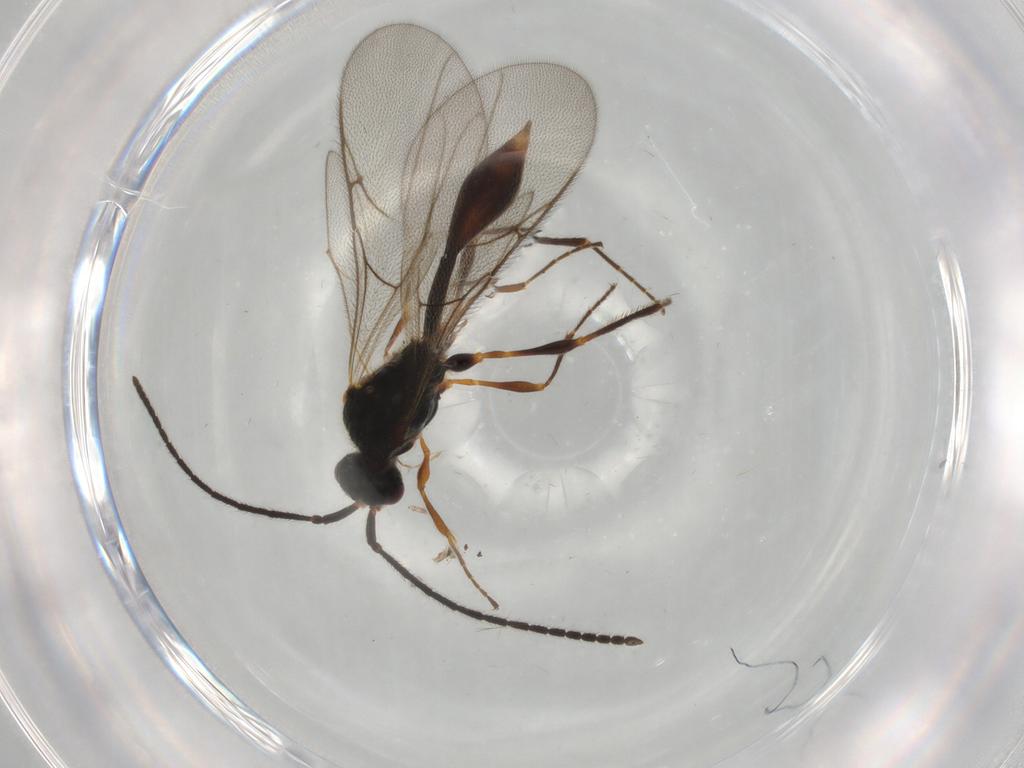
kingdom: Animalia
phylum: Arthropoda
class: Insecta
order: Hymenoptera
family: Diapriidae
